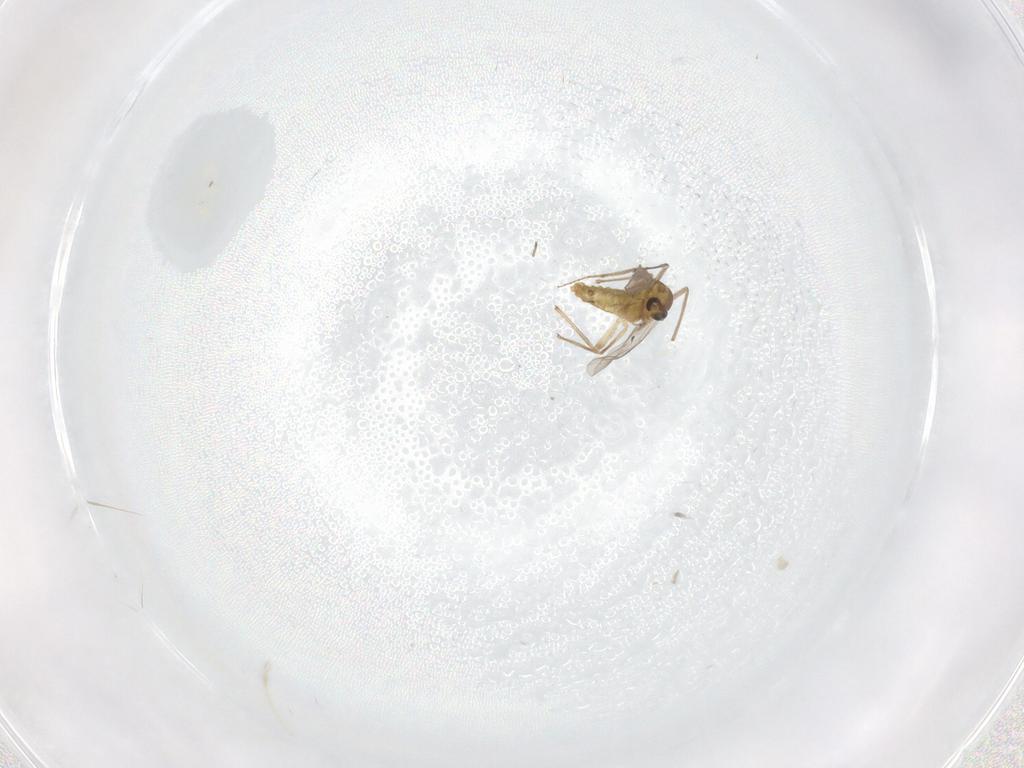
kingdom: Animalia
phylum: Arthropoda
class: Insecta
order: Diptera
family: Chironomidae
